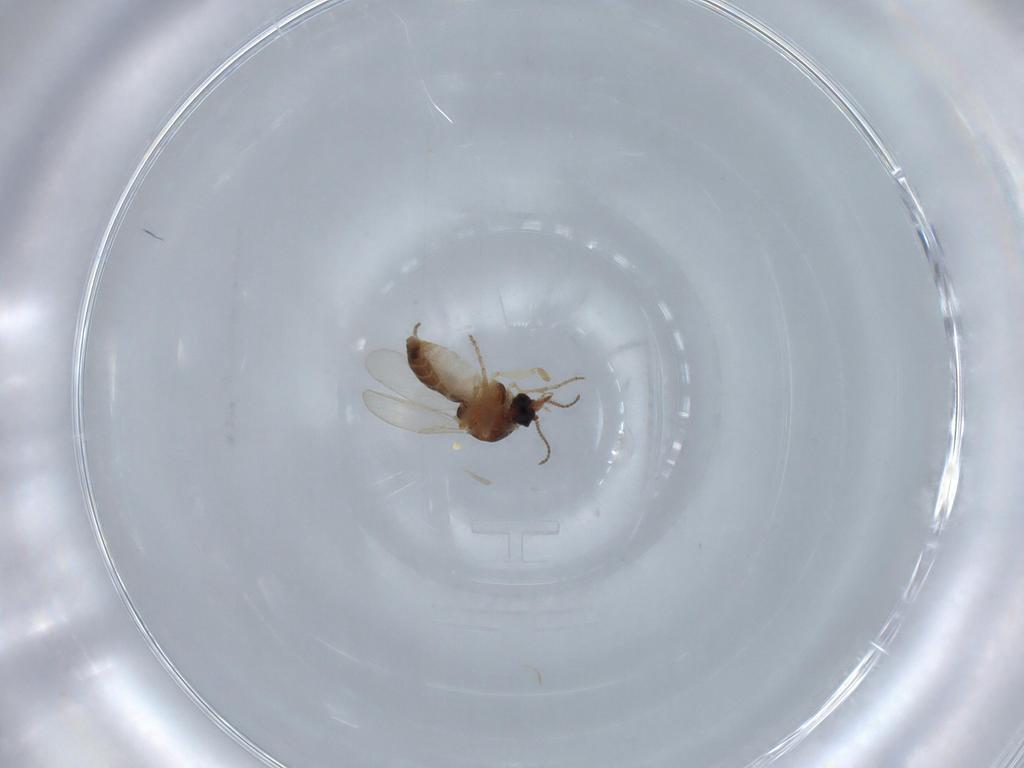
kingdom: Animalia
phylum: Arthropoda
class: Insecta
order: Diptera
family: Ceratopogonidae
